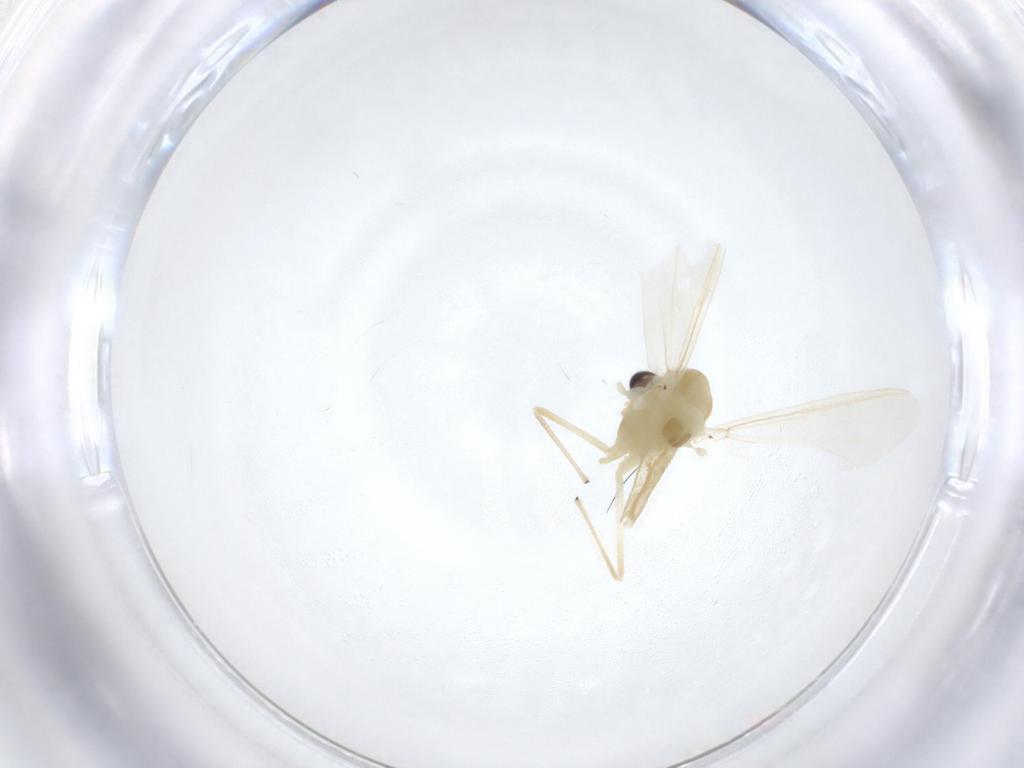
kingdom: Animalia
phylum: Arthropoda
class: Insecta
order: Diptera
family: Chironomidae
